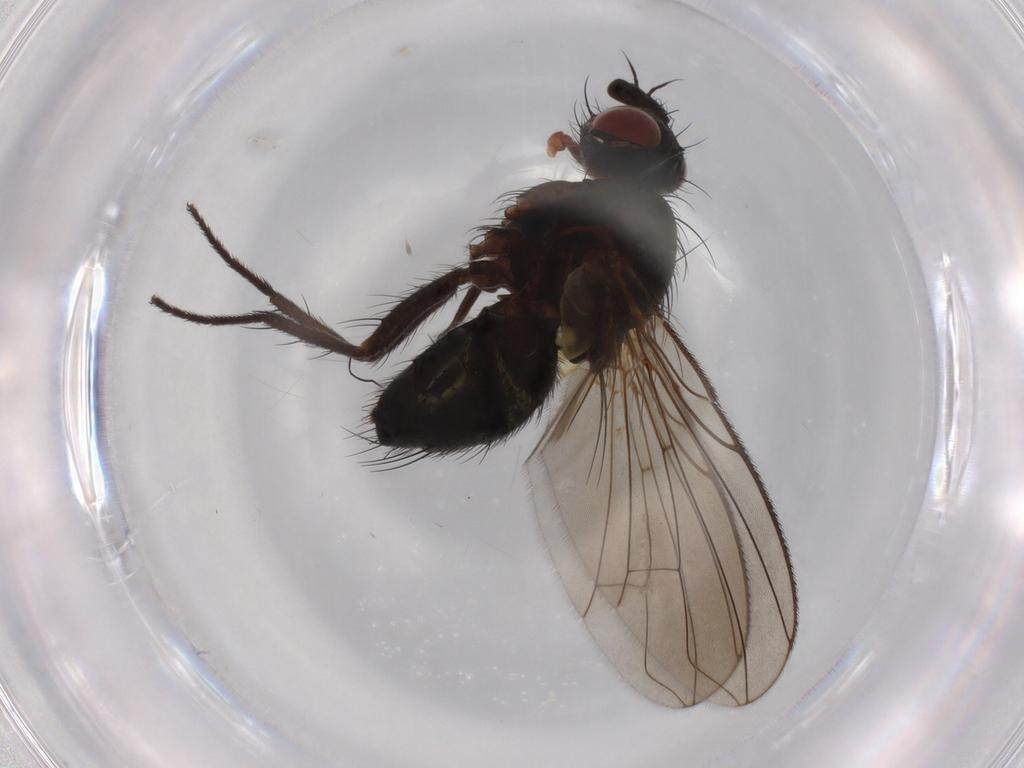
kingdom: Animalia
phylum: Arthropoda
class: Insecta
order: Diptera
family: Tachinidae
